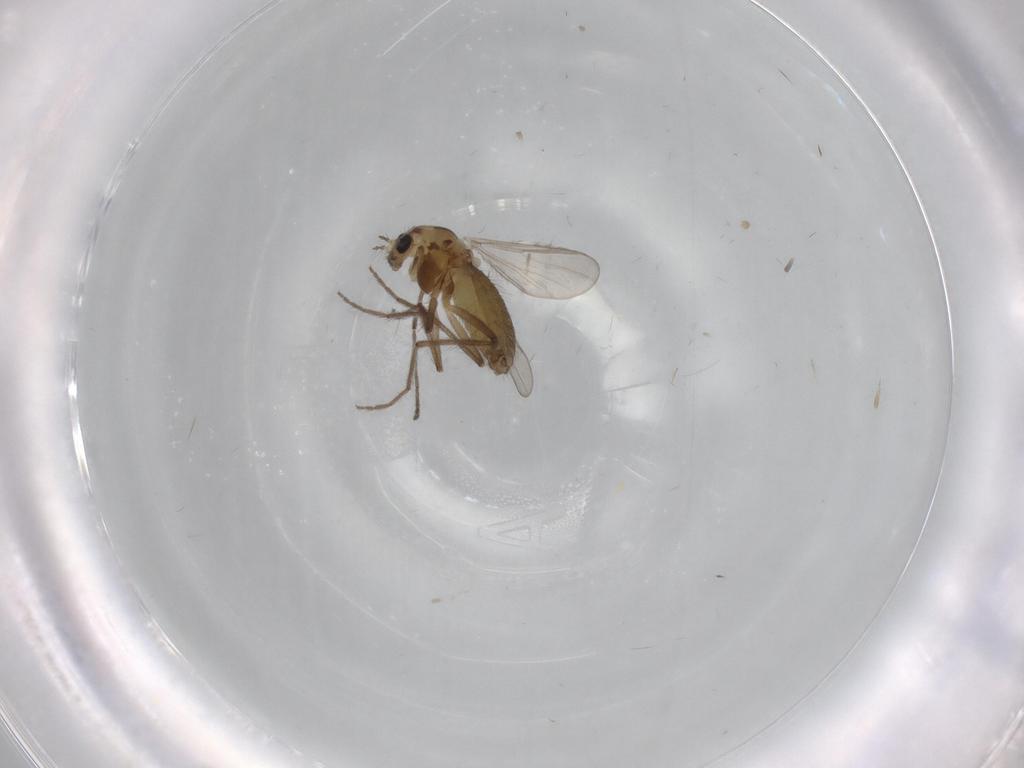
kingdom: Animalia
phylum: Arthropoda
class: Insecta
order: Diptera
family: Chironomidae
